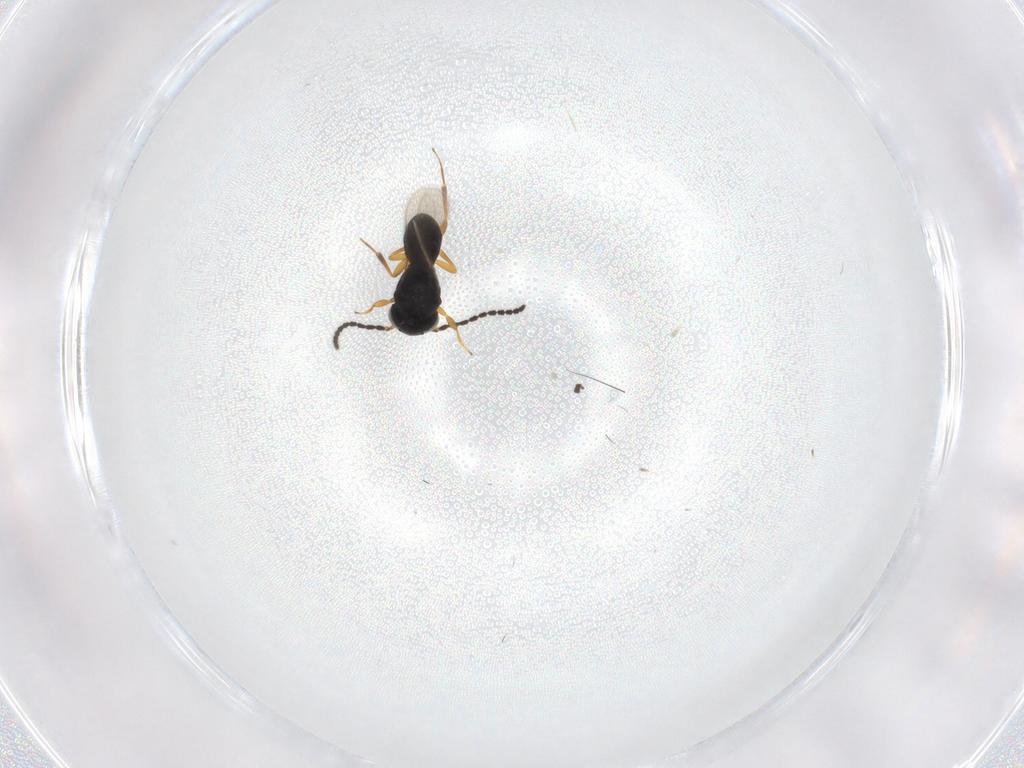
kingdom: Animalia
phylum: Arthropoda
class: Insecta
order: Hymenoptera
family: Scelionidae
